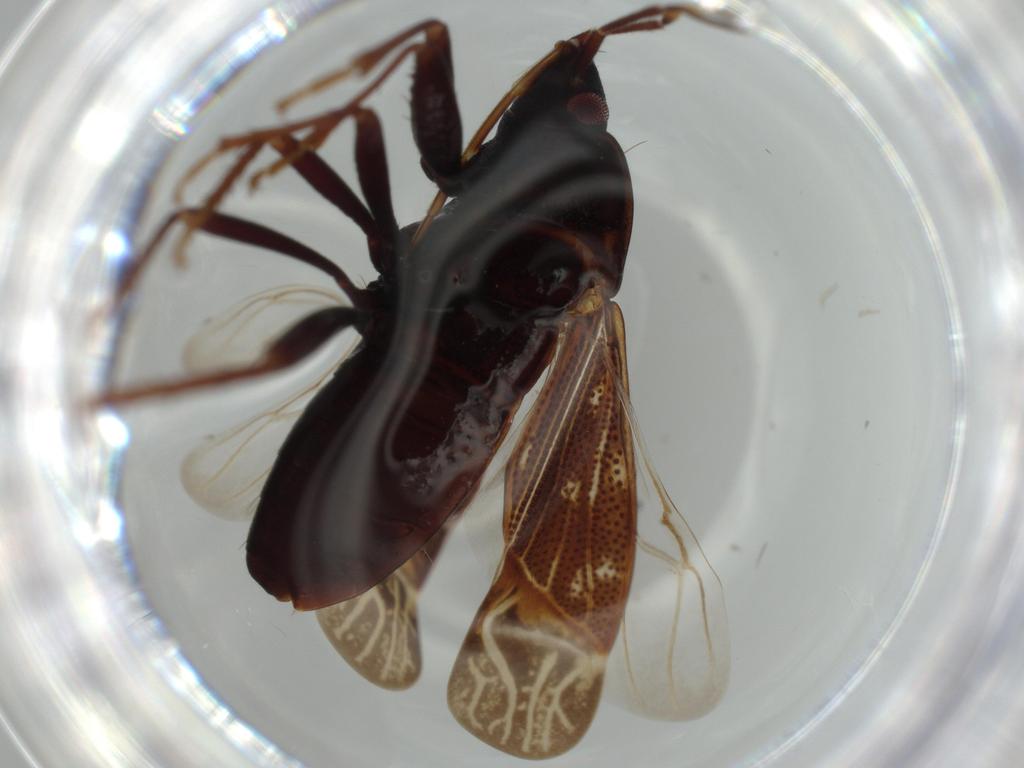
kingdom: Animalia
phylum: Arthropoda
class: Insecta
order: Hemiptera
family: Rhyparochromidae
